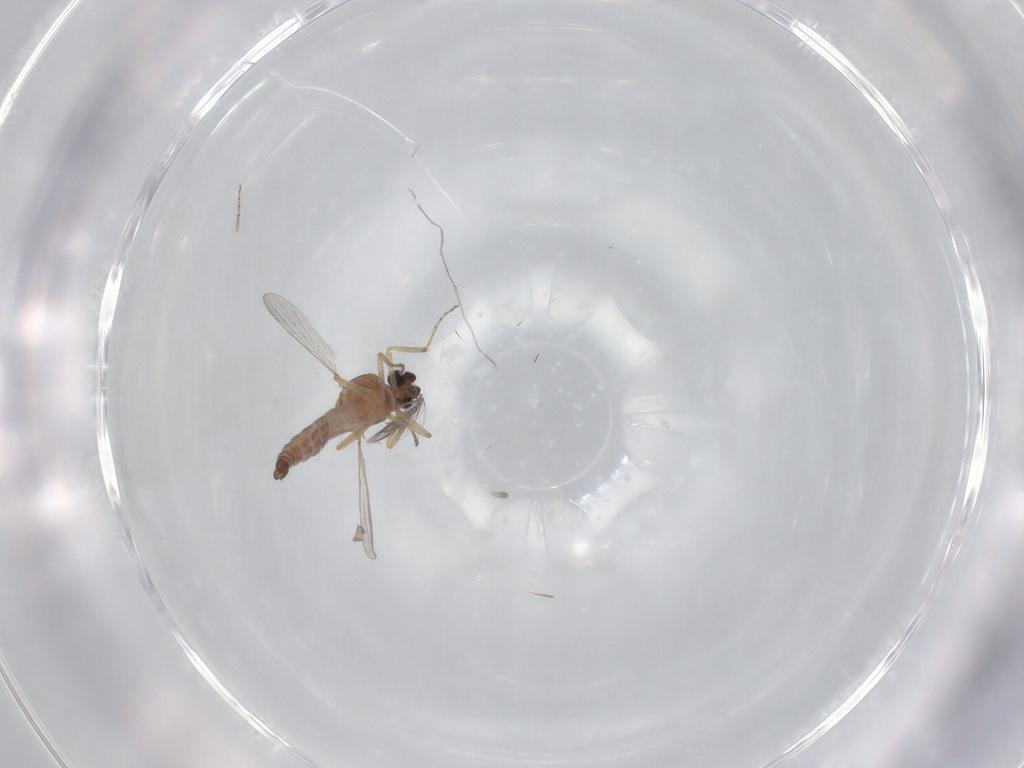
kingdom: Animalia
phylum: Arthropoda
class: Insecta
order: Diptera
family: Ceratopogonidae
